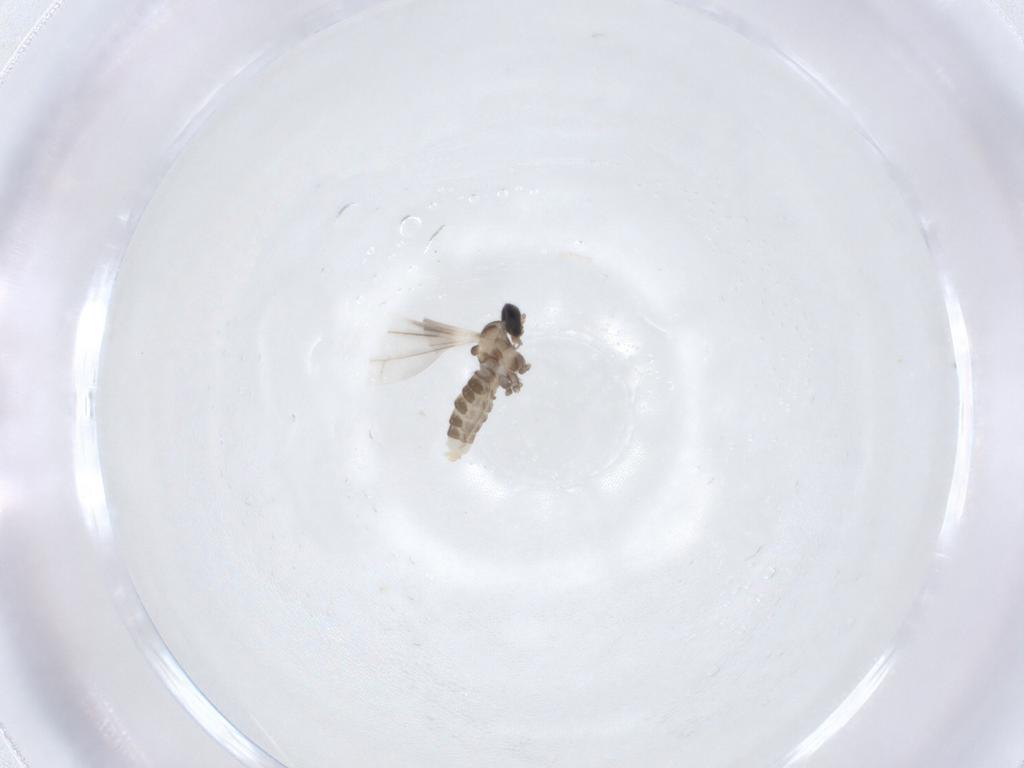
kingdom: Animalia
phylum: Arthropoda
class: Insecta
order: Diptera
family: Cecidomyiidae
